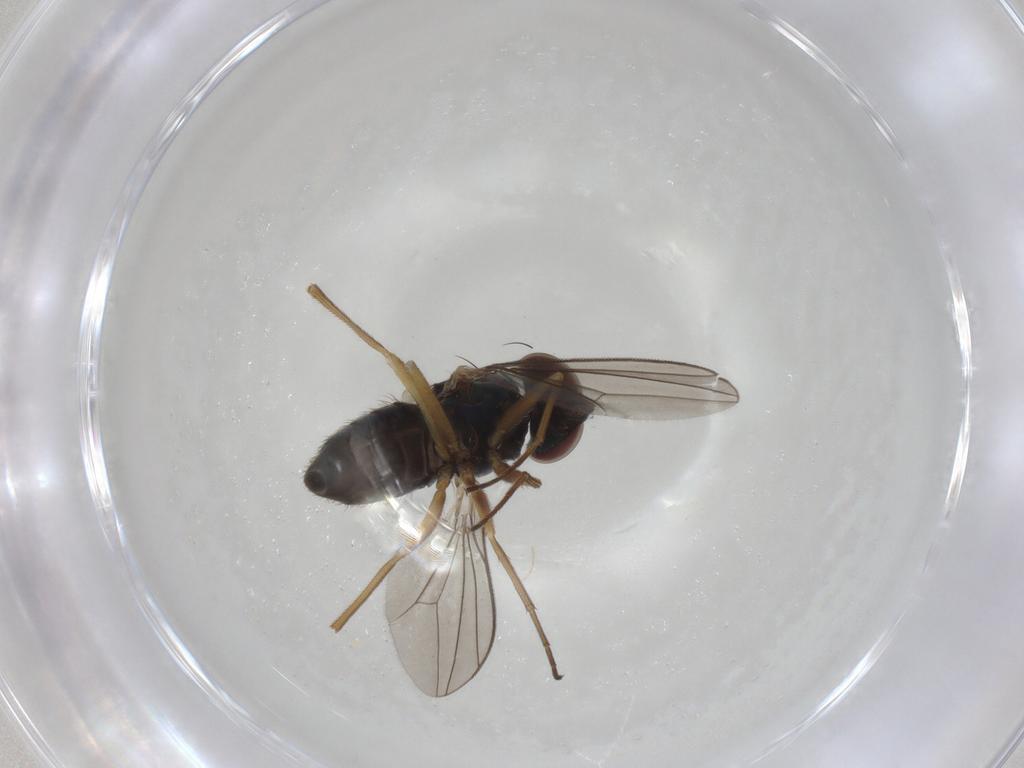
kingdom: Animalia
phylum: Arthropoda
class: Insecta
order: Diptera
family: Dolichopodidae
